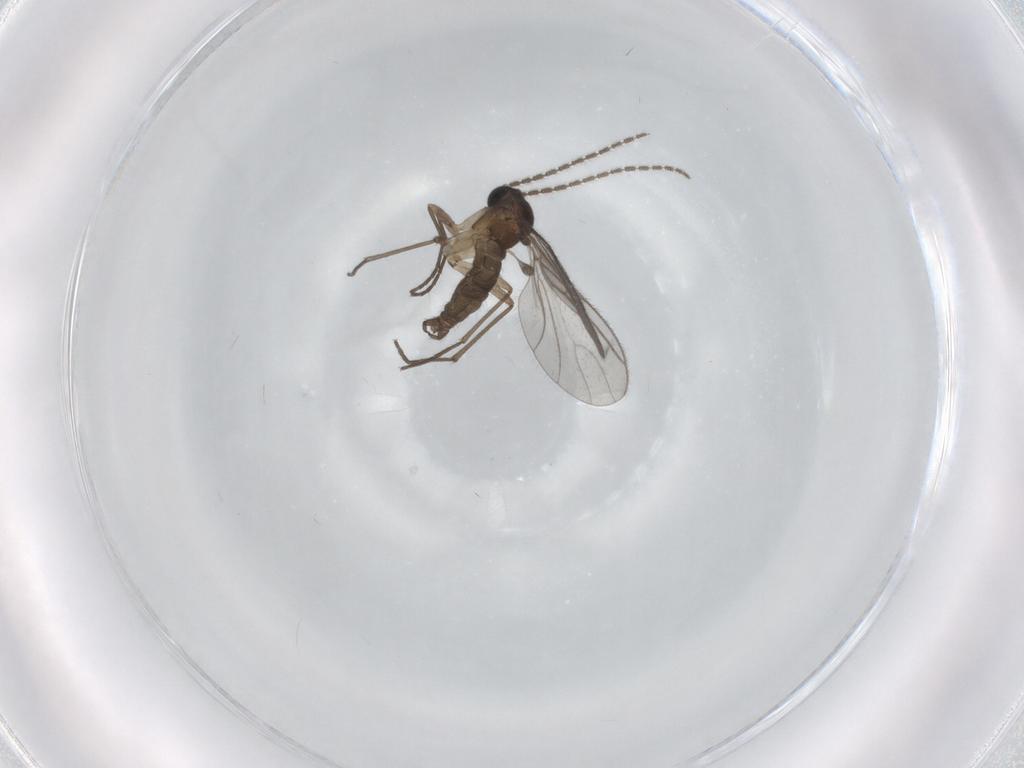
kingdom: Animalia
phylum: Arthropoda
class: Insecta
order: Diptera
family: Sciaridae
